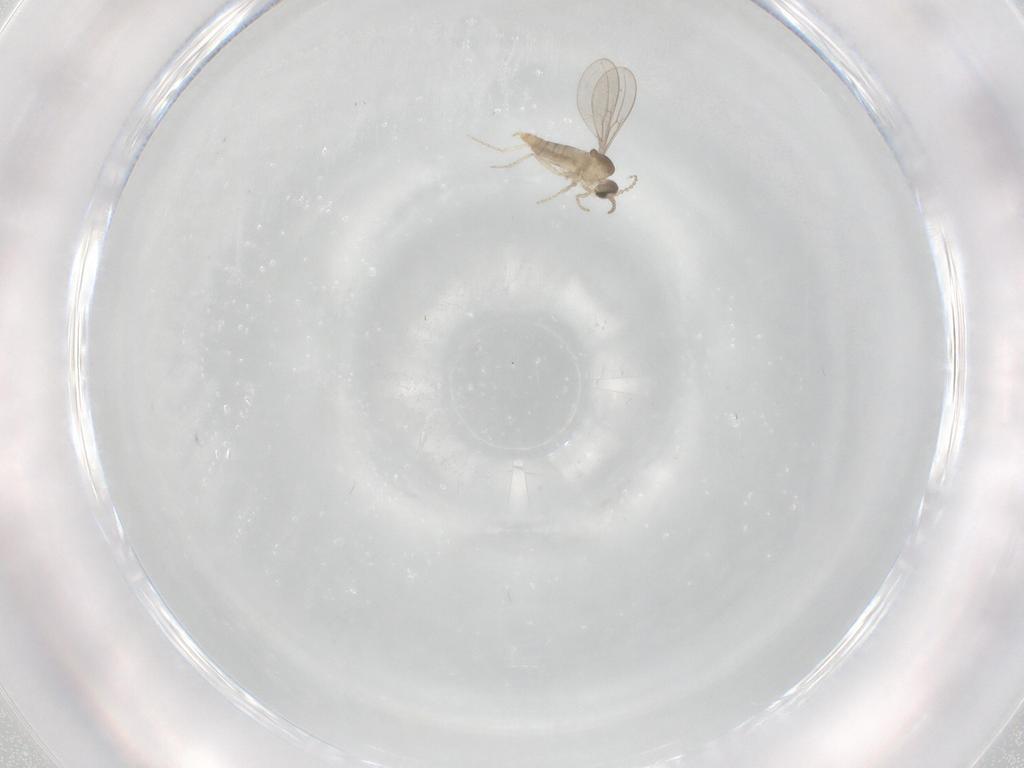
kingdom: Animalia
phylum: Arthropoda
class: Insecta
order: Diptera
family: Cecidomyiidae
